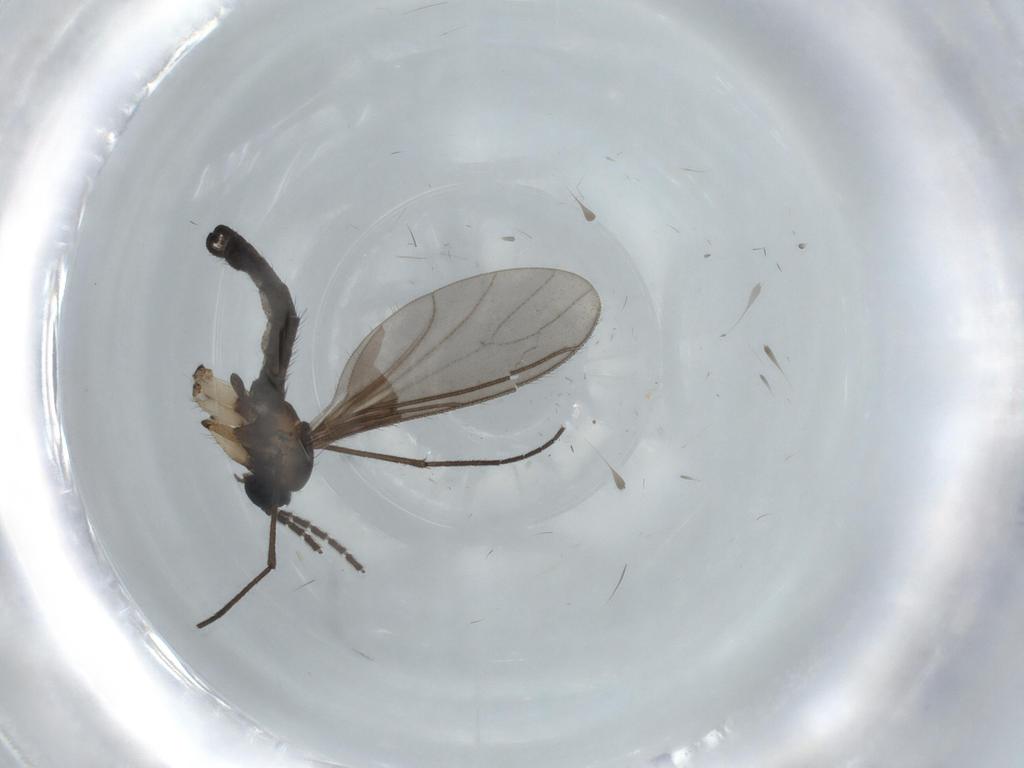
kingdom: Animalia
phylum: Arthropoda
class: Insecta
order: Diptera
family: Sciaridae
